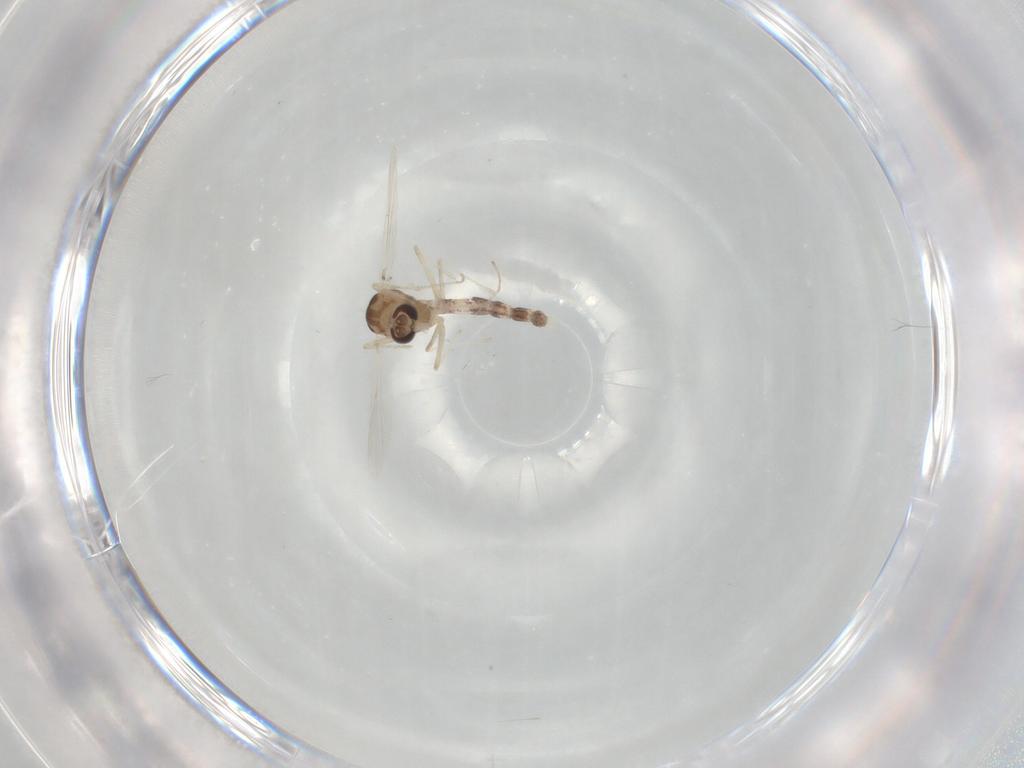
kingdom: Animalia
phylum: Arthropoda
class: Insecta
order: Diptera
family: Chironomidae
